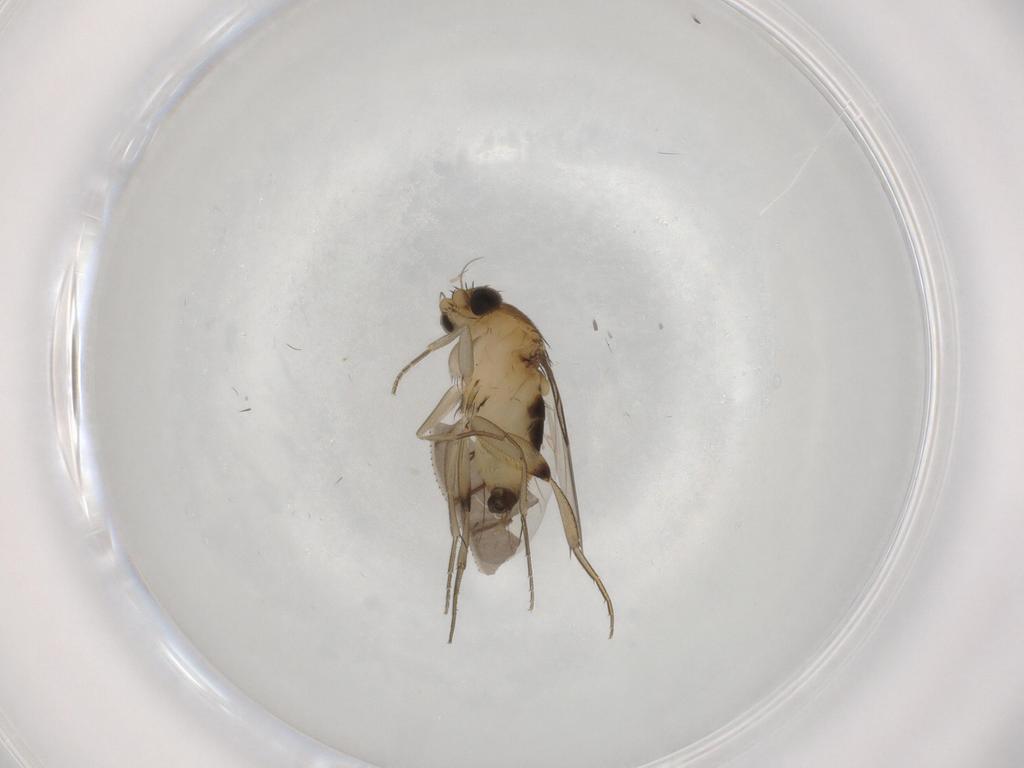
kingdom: Animalia
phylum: Arthropoda
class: Insecta
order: Diptera
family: Phoridae
